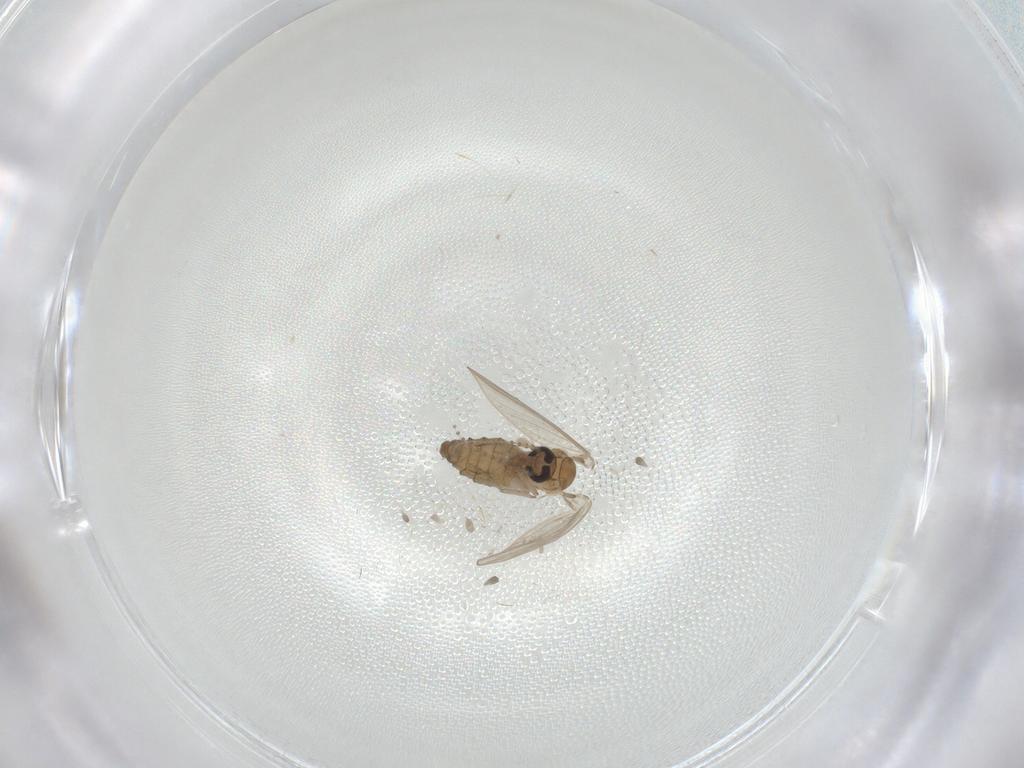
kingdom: Animalia
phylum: Arthropoda
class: Insecta
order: Diptera
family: Psychodidae
